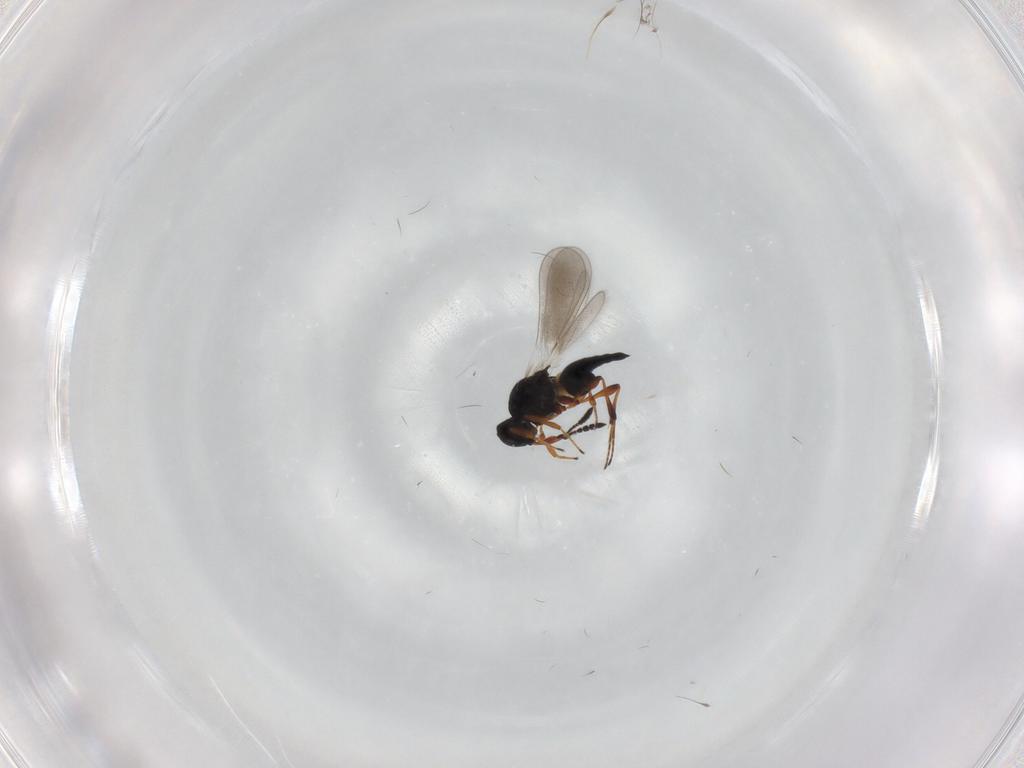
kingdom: Animalia
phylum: Arthropoda
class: Insecta
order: Hymenoptera
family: Platygastridae
